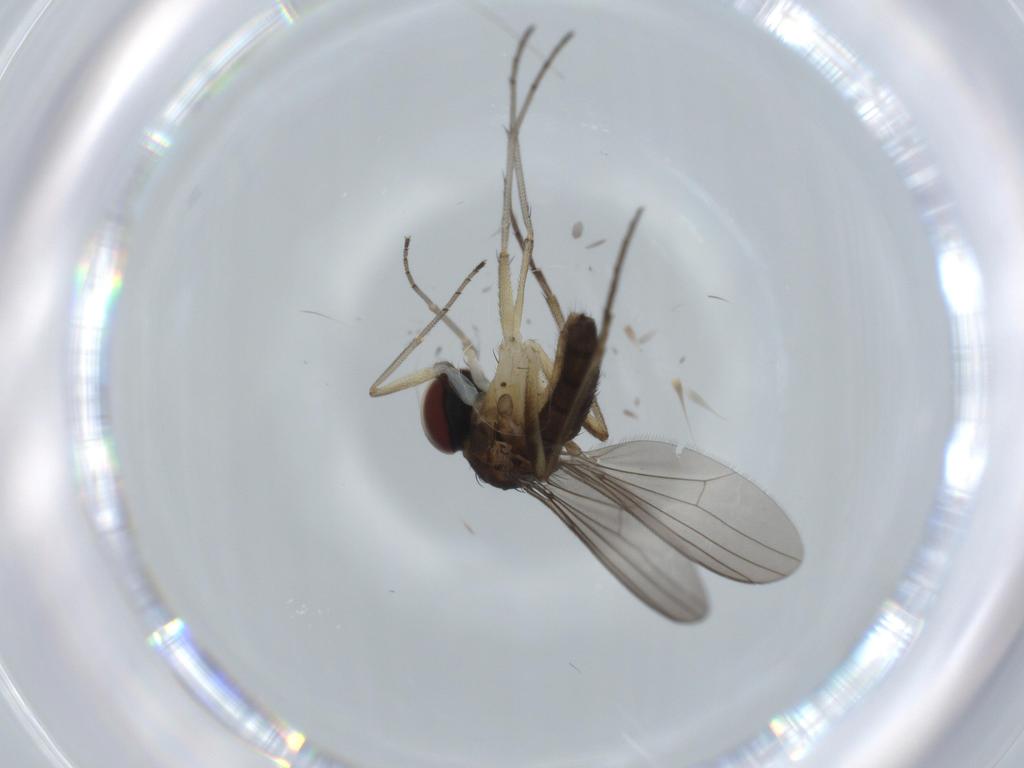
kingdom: Animalia
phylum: Arthropoda
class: Insecta
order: Diptera
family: Dolichopodidae
